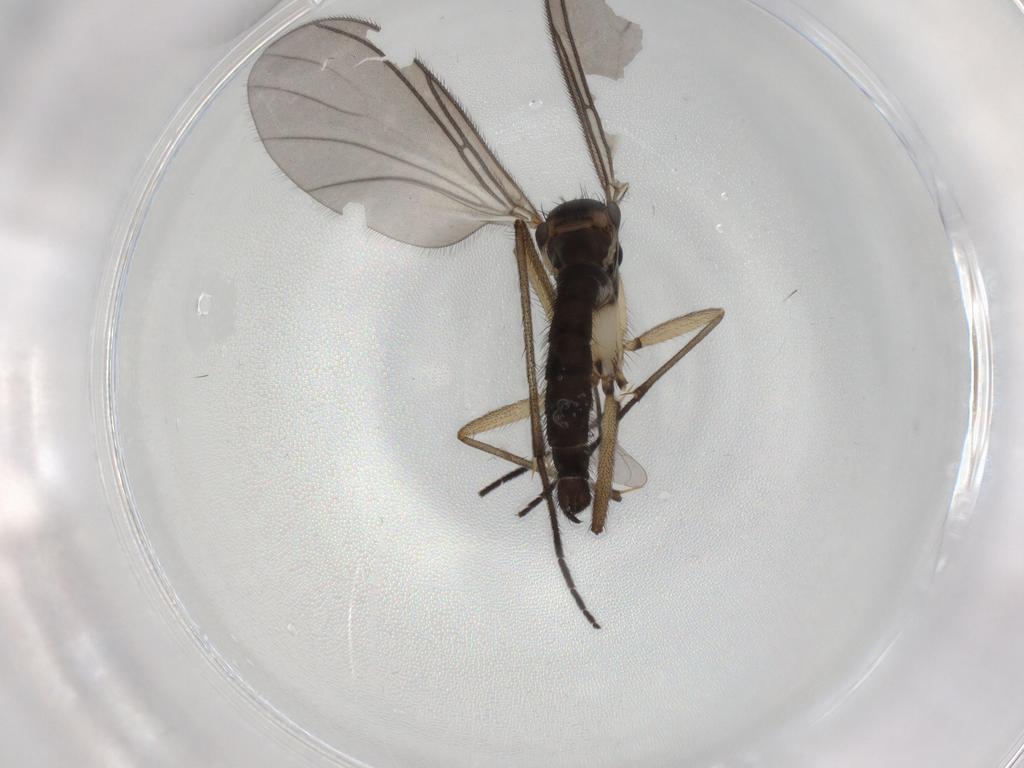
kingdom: Animalia
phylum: Arthropoda
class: Insecta
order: Diptera
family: Sciaridae
